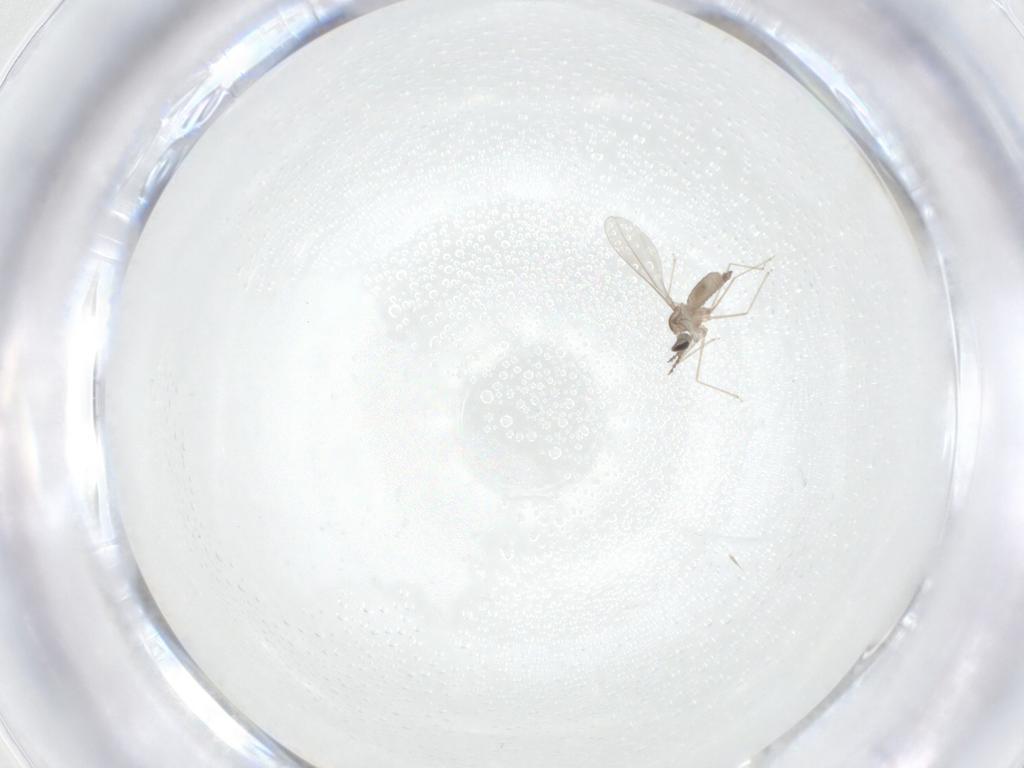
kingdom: Animalia
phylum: Arthropoda
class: Insecta
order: Diptera
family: Cecidomyiidae
